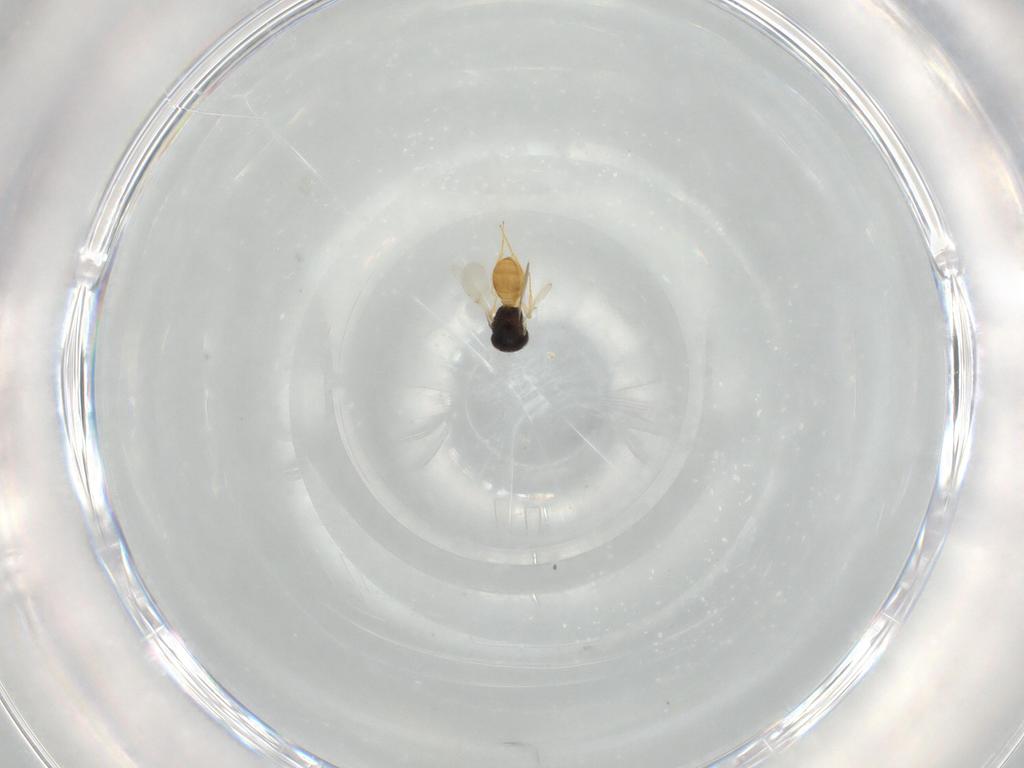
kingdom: Animalia
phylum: Arthropoda
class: Insecta
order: Hymenoptera
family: Scelionidae
